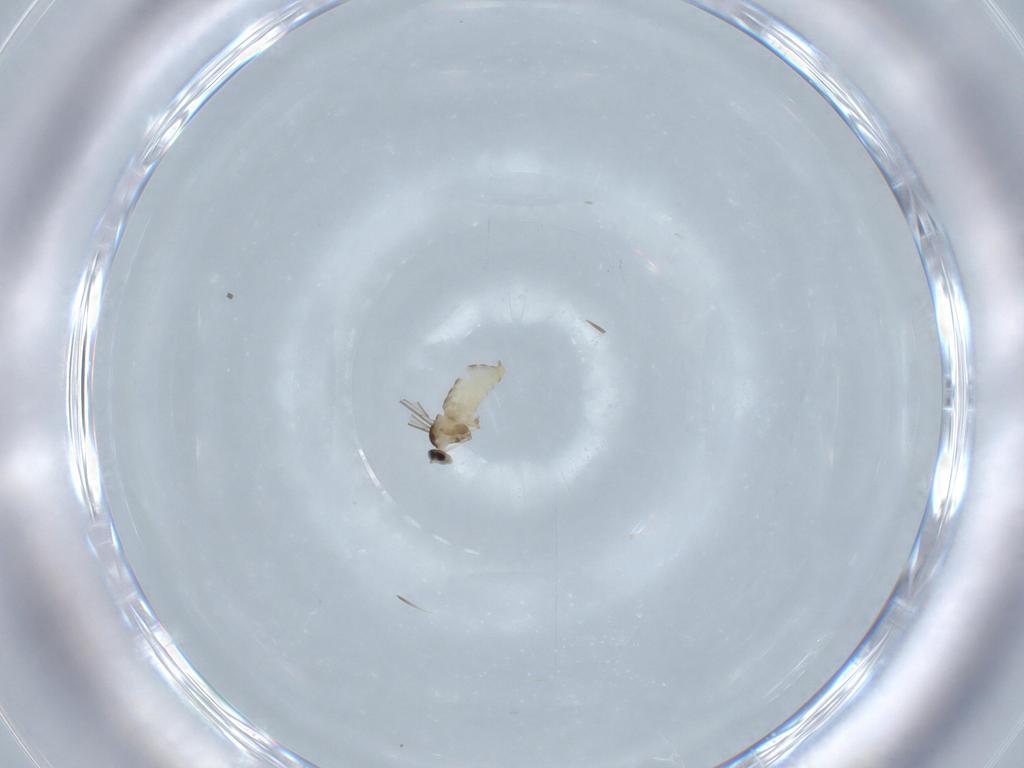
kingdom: Animalia
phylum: Arthropoda
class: Insecta
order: Diptera
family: Cecidomyiidae
